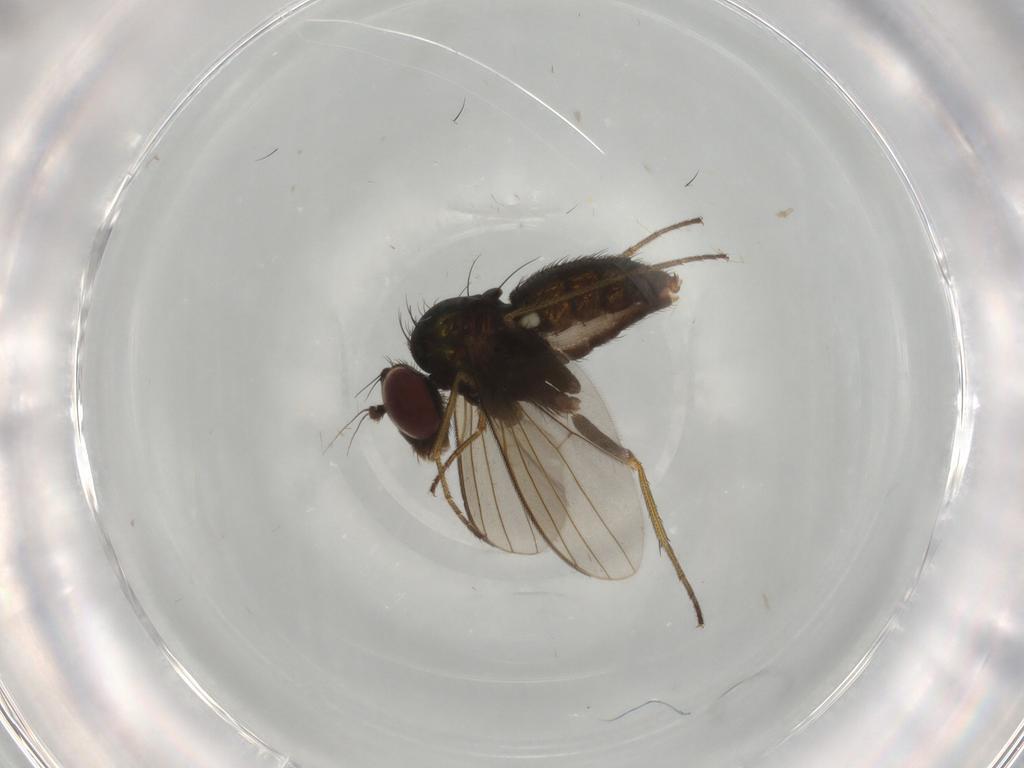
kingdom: Animalia
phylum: Arthropoda
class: Insecta
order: Diptera
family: Dolichopodidae
